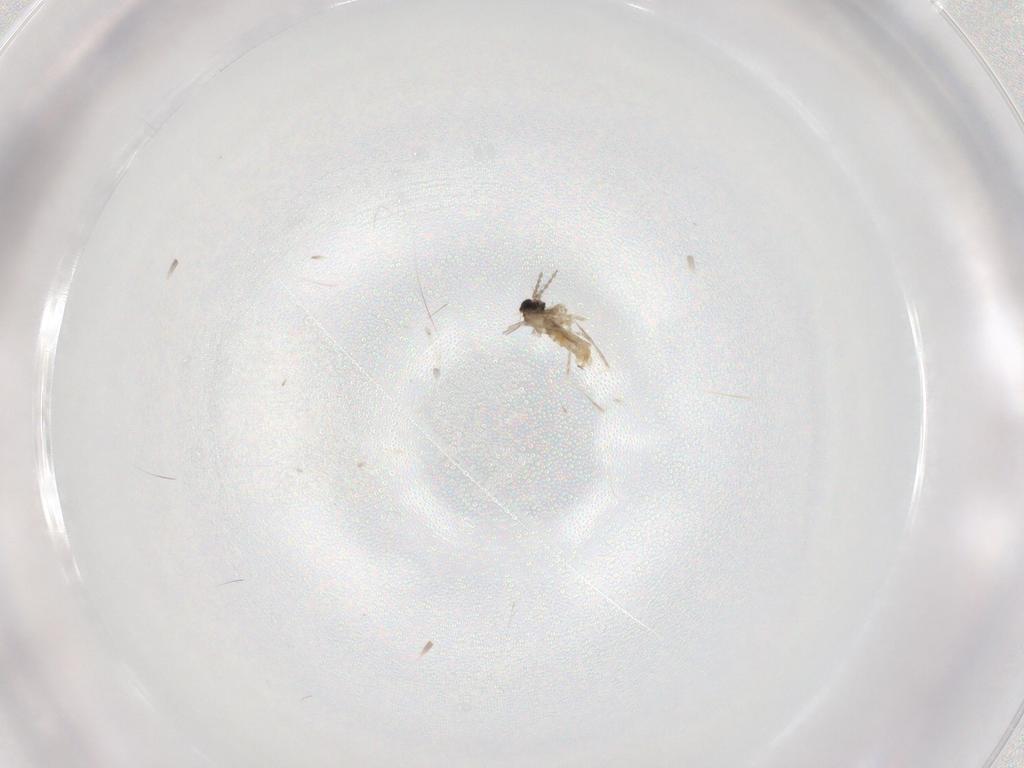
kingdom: Animalia
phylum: Arthropoda
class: Insecta
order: Diptera
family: Cecidomyiidae
